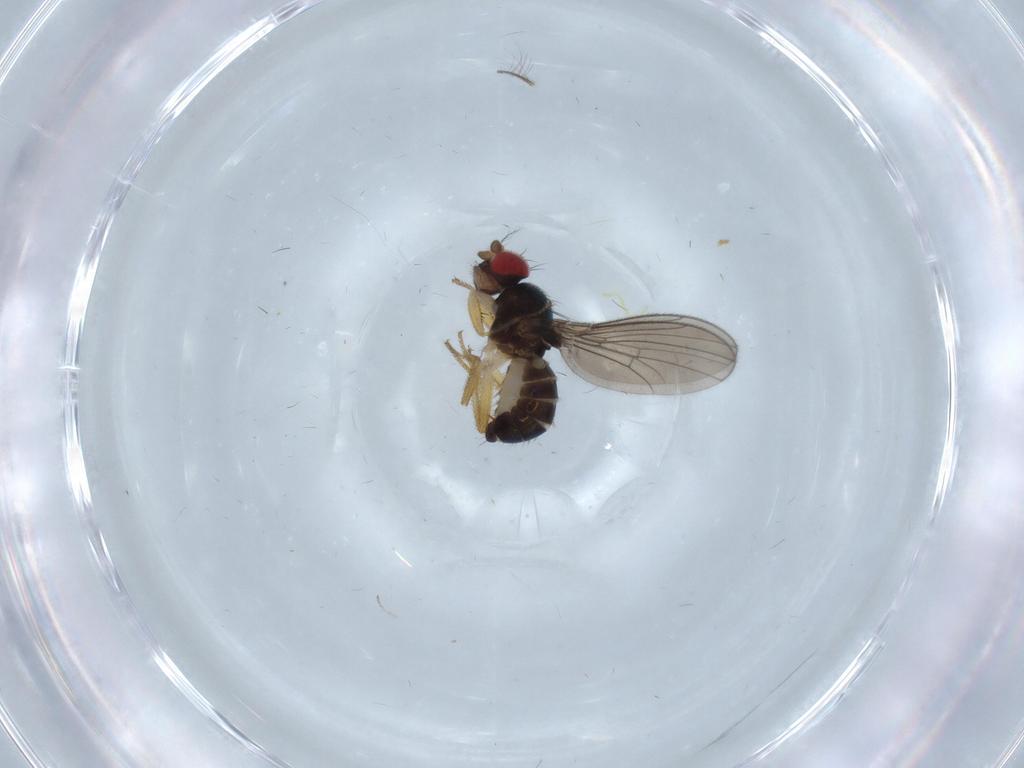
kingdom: Animalia
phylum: Arthropoda
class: Insecta
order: Diptera
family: Drosophilidae
